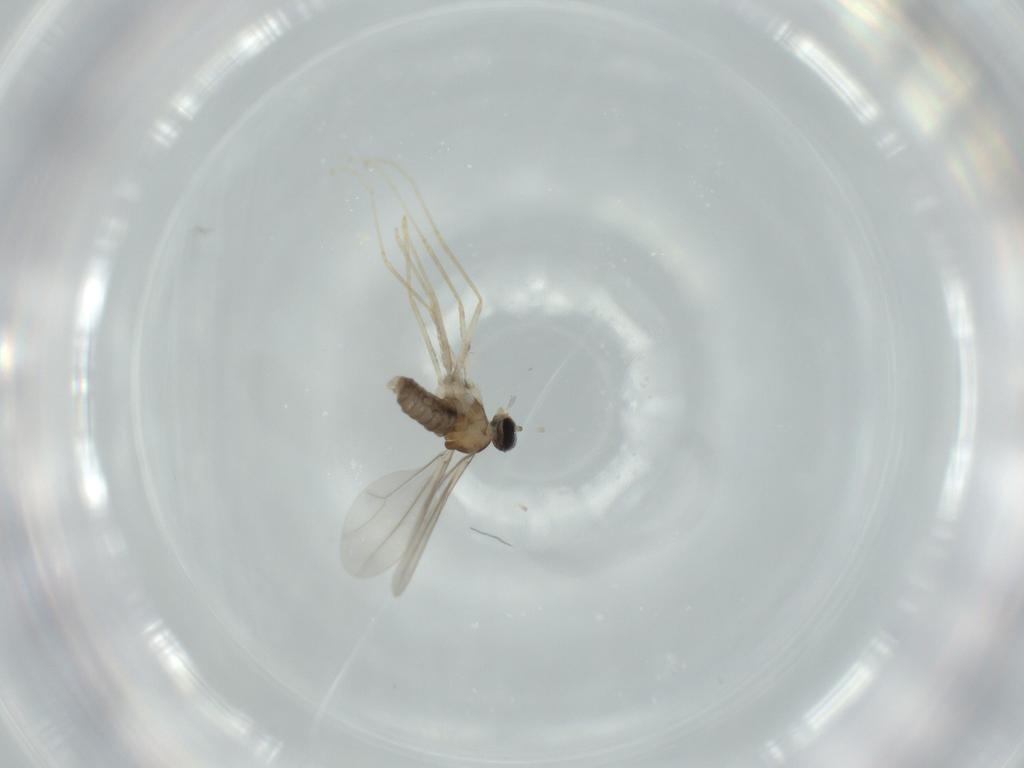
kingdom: Animalia
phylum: Arthropoda
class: Insecta
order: Diptera
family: Cecidomyiidae
